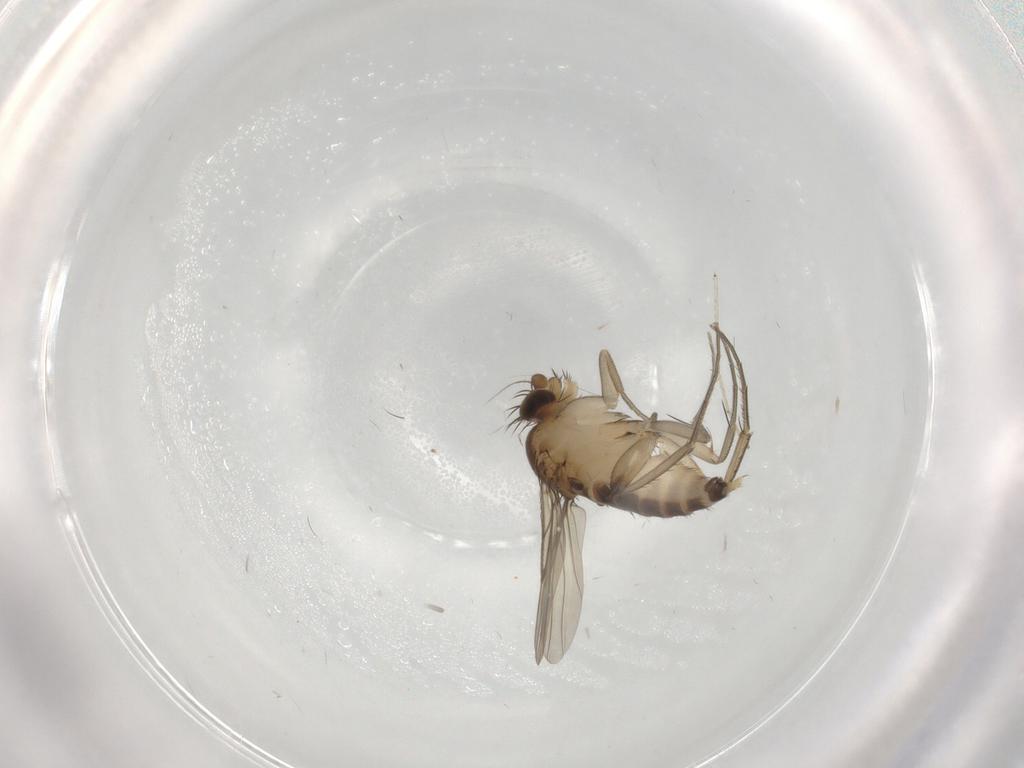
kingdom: Animalia
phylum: Arthropoda
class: Insecta
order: Diptera
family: Cecidomyiidae
